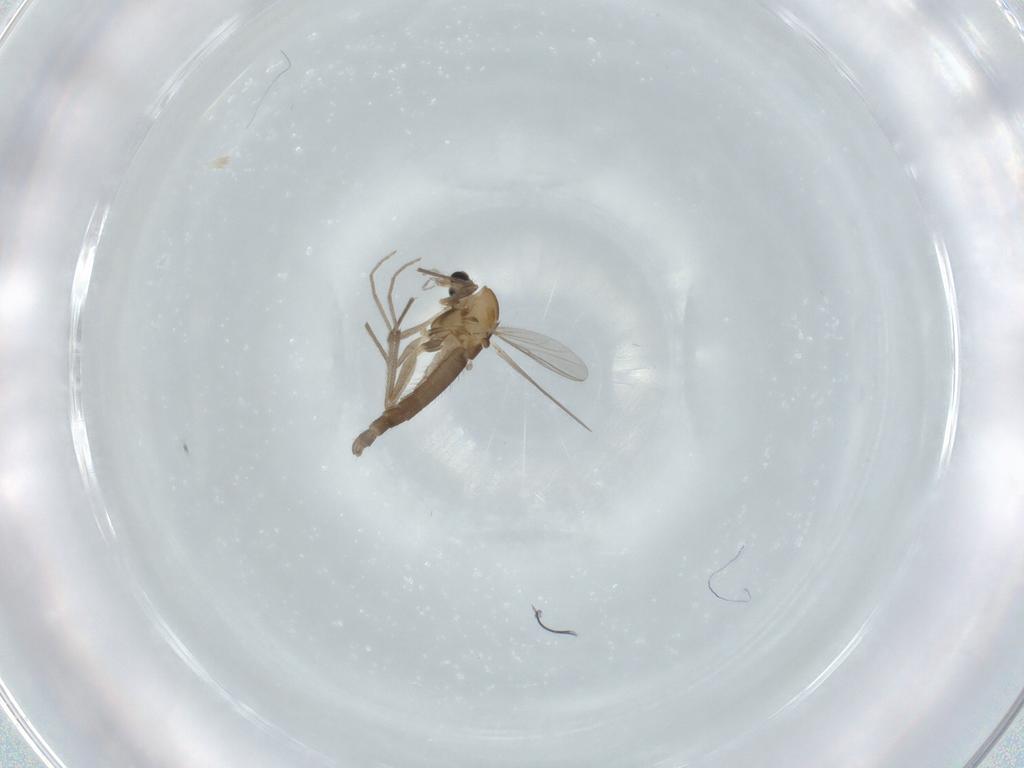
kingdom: Animalia
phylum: Arthropoda
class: Insecta
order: Diptera
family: Chironomidae
